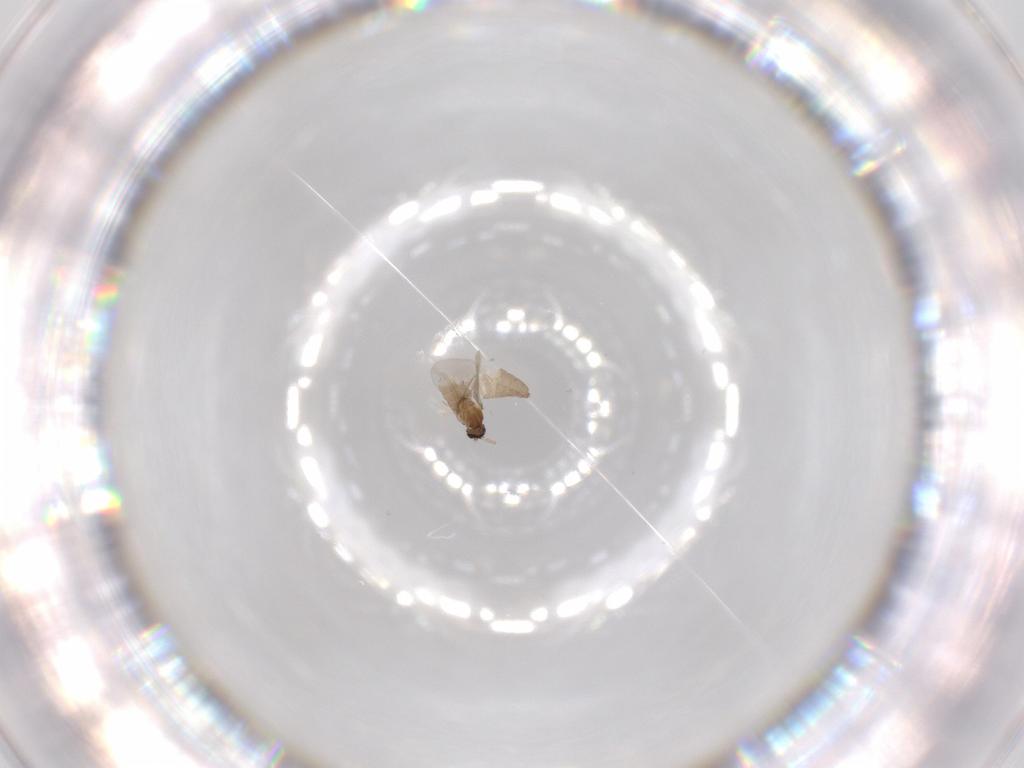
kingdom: Animalia
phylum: Arthropoda
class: Insecta
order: Diptera
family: Cecidomyiidae
